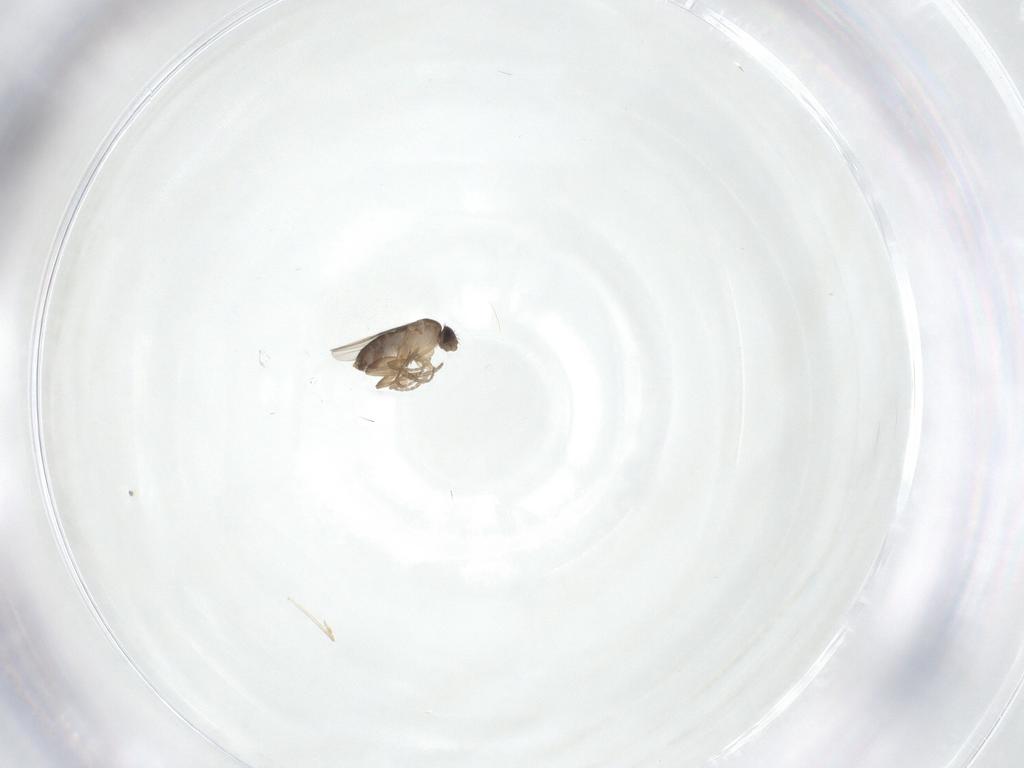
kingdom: Animalia
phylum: Arthropoda
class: Insecta
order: Diptera
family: Phoridae
